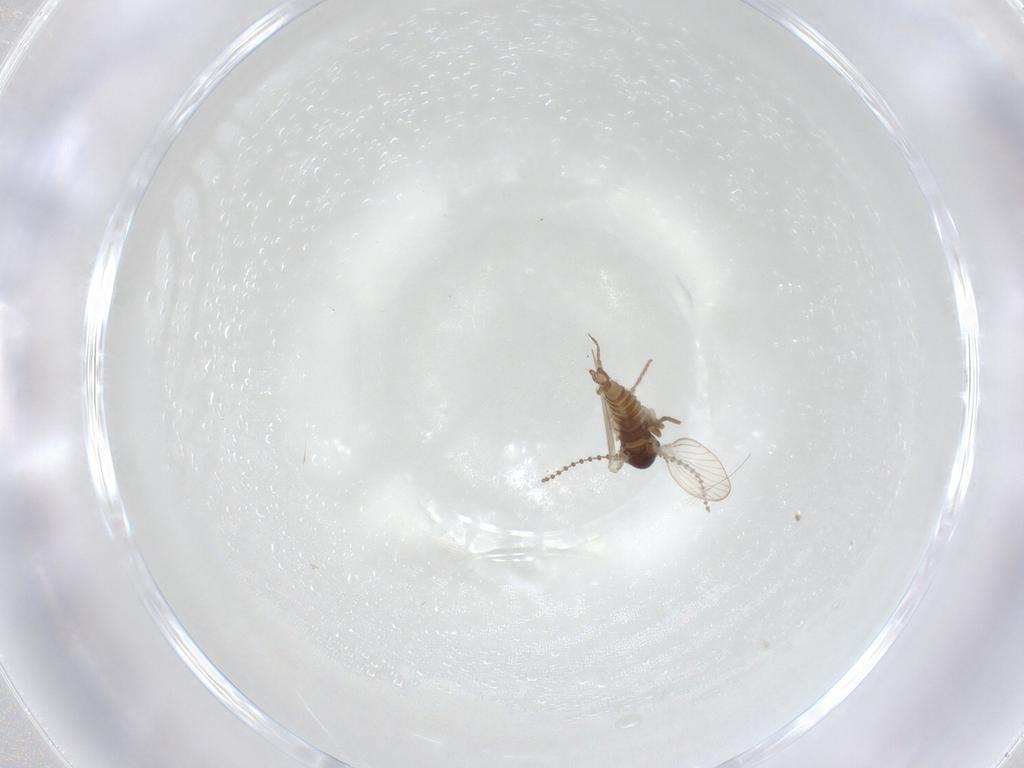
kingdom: Animalia
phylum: Arthropoda
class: Insecta
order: Diptera
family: Psychodidae
